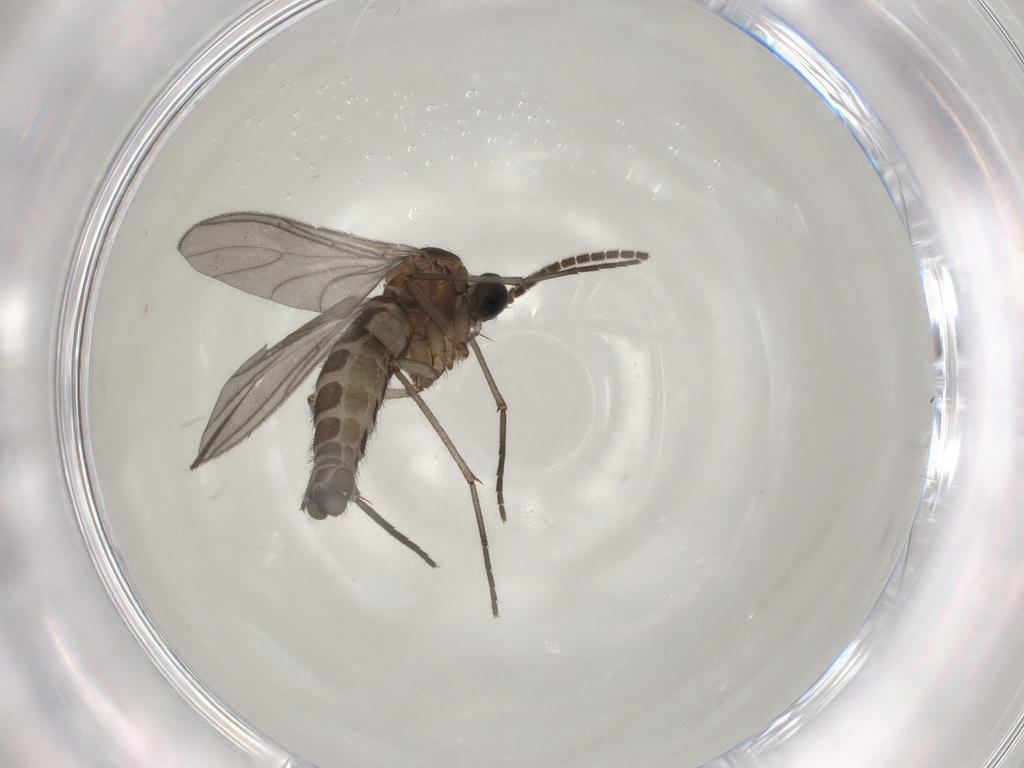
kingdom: Animalia
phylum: Arthropoda
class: Insecta
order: Diptera
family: Sciaridae
